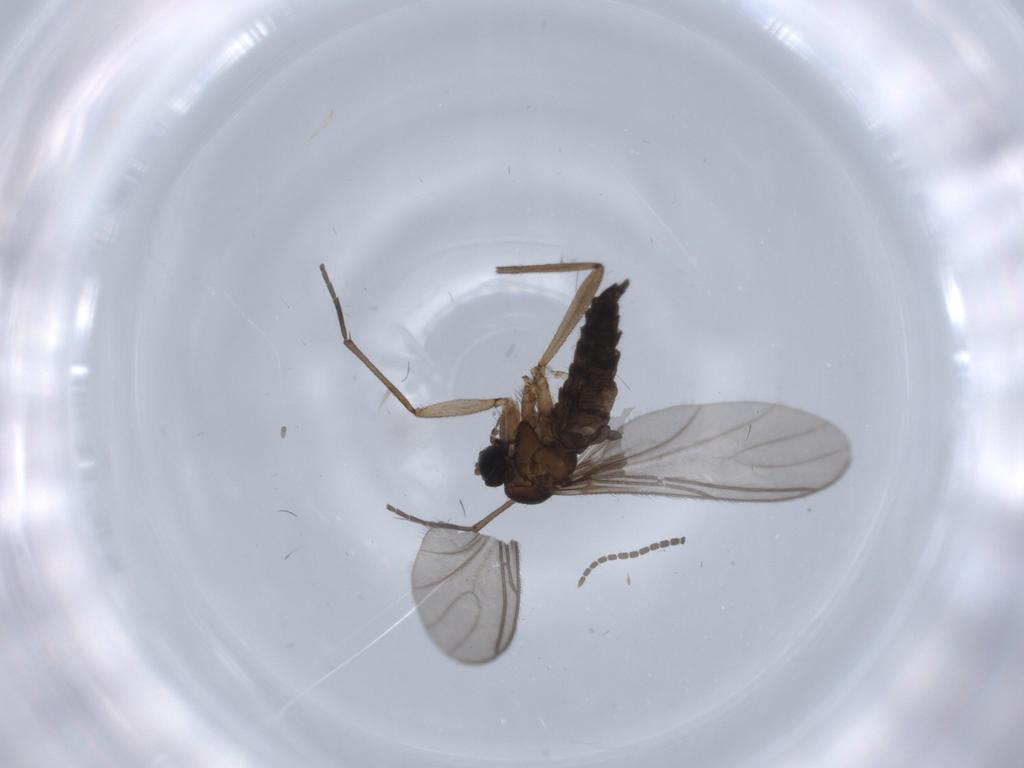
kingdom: Animalia
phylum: Arthropoda
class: Insecta
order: Diptera
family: Sciaridae
